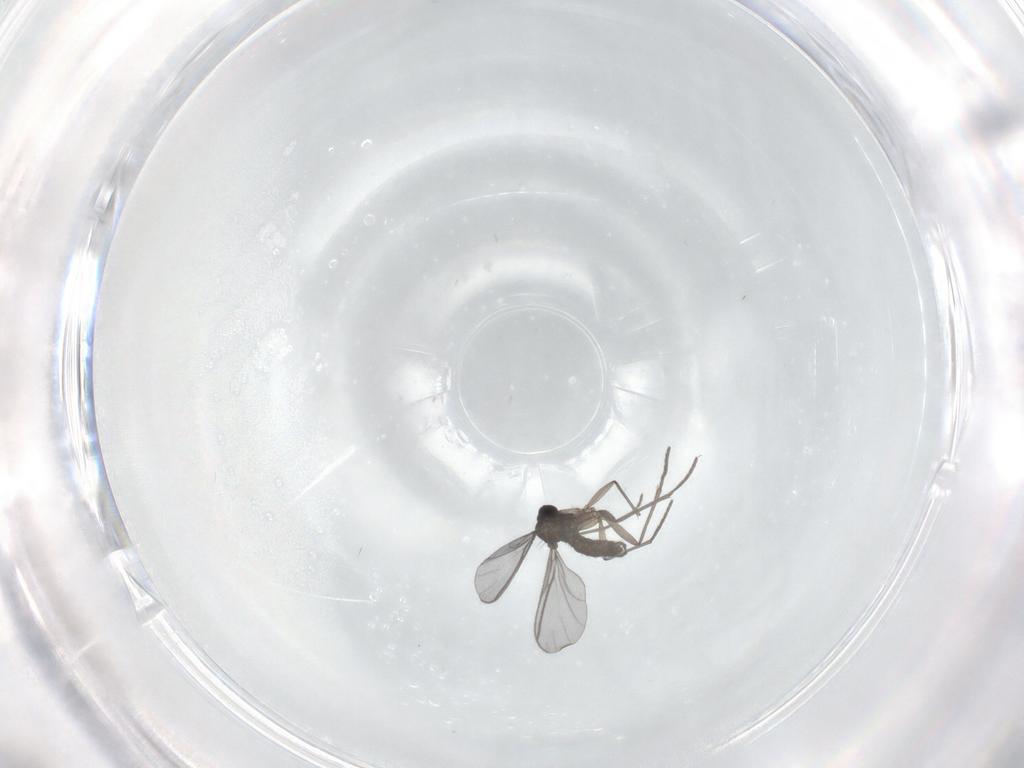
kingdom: Animalia
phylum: Arthropoda
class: Insecta
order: Diptera
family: Dolichopodidae
